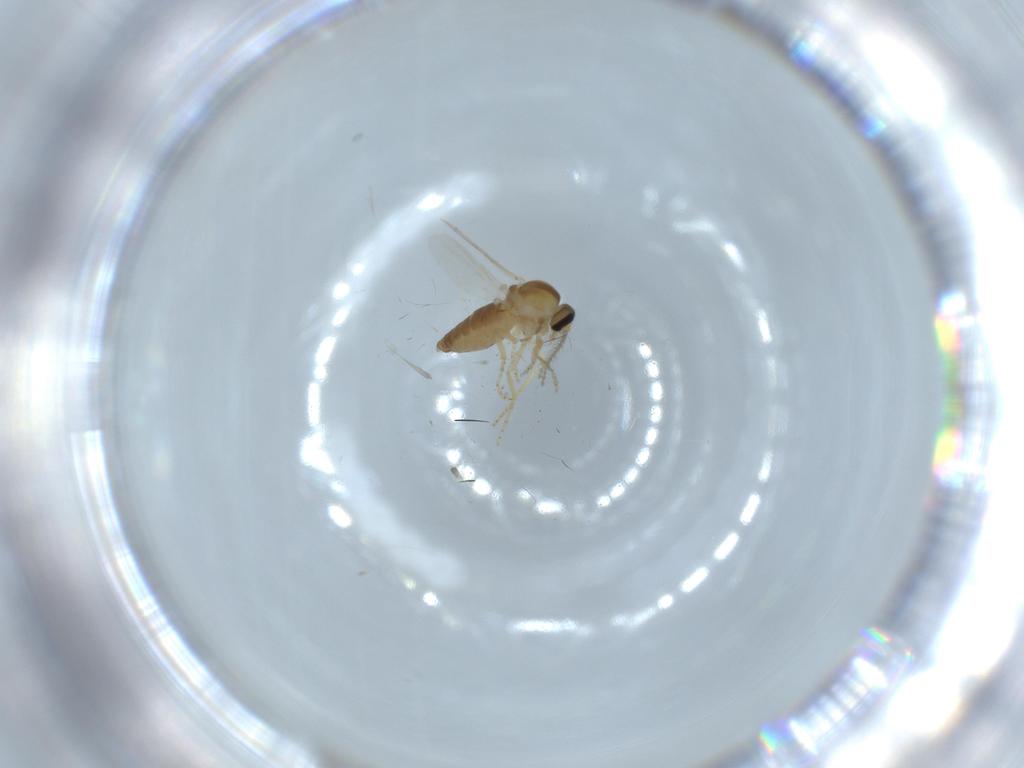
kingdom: Animalia
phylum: Arthropoda
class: Insecta
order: Diptera
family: Ceratopogonidae
